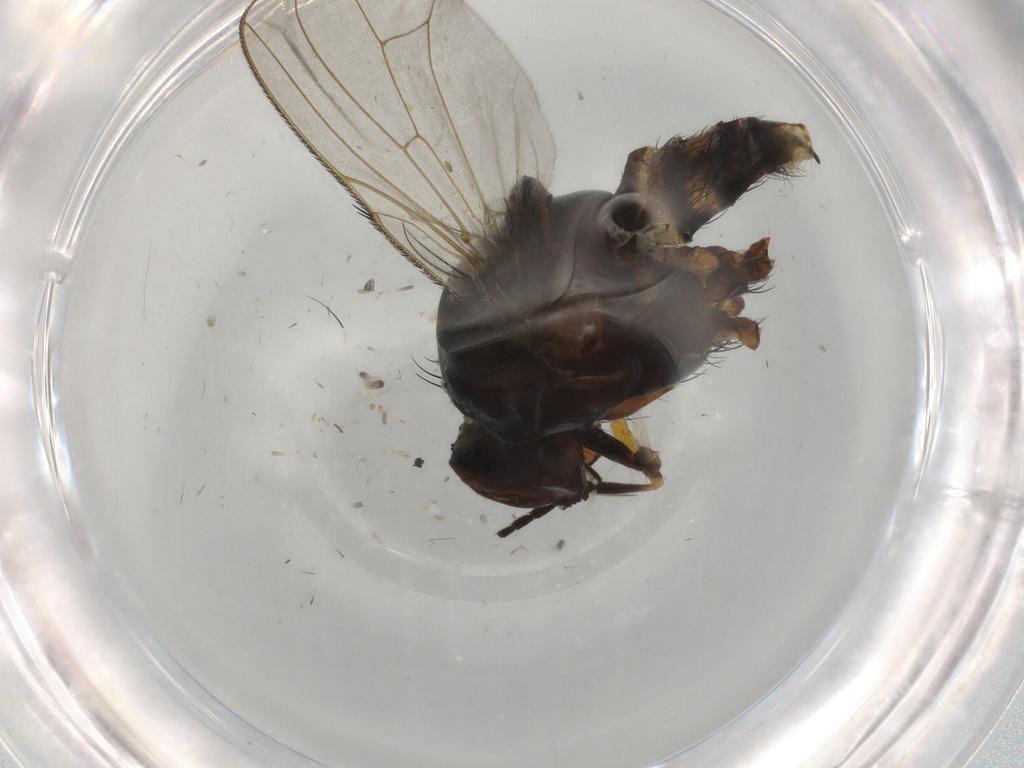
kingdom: Animalia
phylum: Arthropoda
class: Insecta
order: Diptera
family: Anthomyiidae
